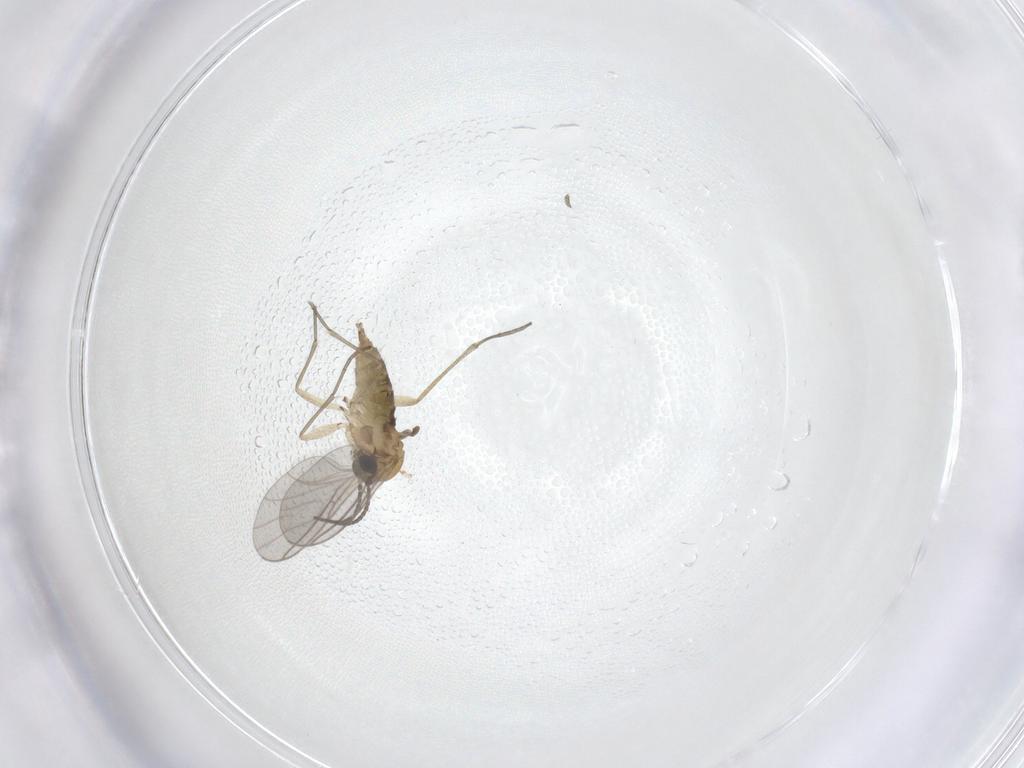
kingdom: Animalia
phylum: Arthropoda
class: Insecta
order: Diptera
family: Sciaridae
